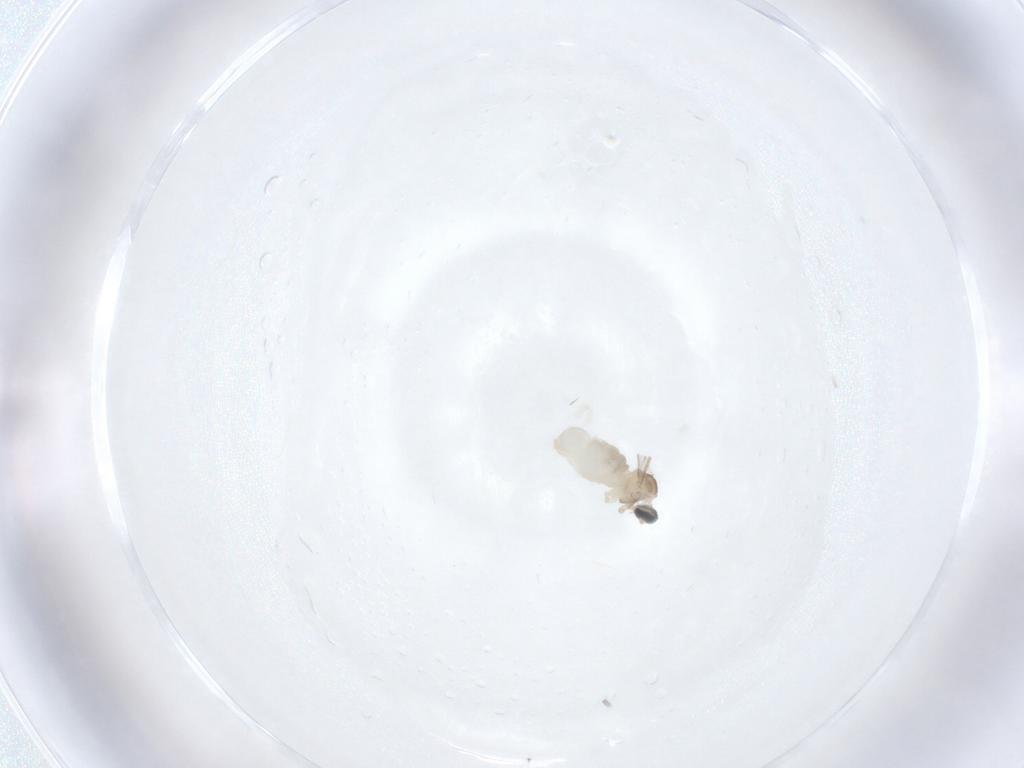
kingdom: Animalia
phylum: Arthropoda
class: Insecta
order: Diptera
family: Cecidomyiidae
